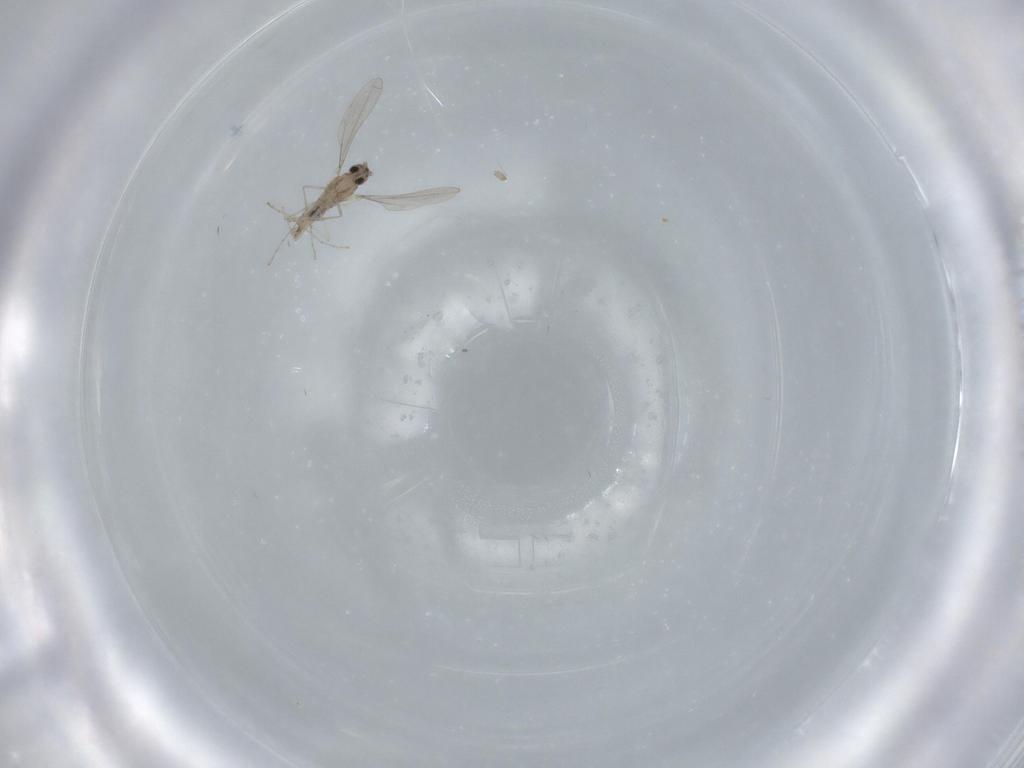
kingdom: Animalia
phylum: Arthropoda
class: Insecta
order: Diptera
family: Cecidomyiidae
